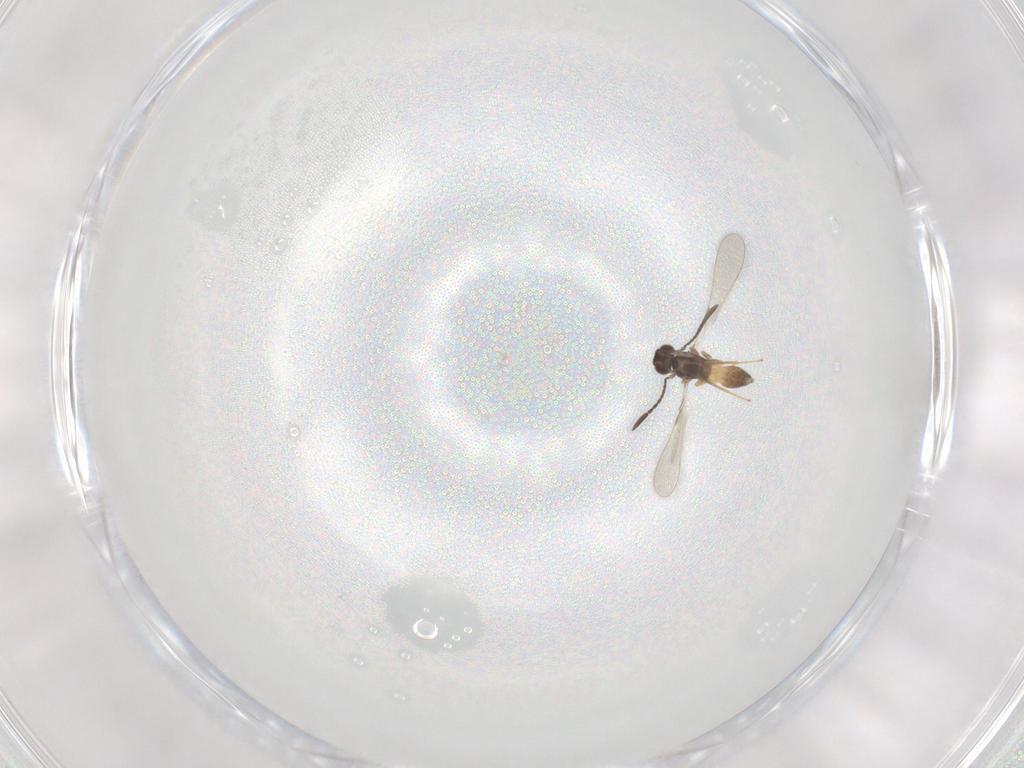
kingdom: Animalia
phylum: Arthropoda
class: Insecta
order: Hymenoptera
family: Mymaridae
